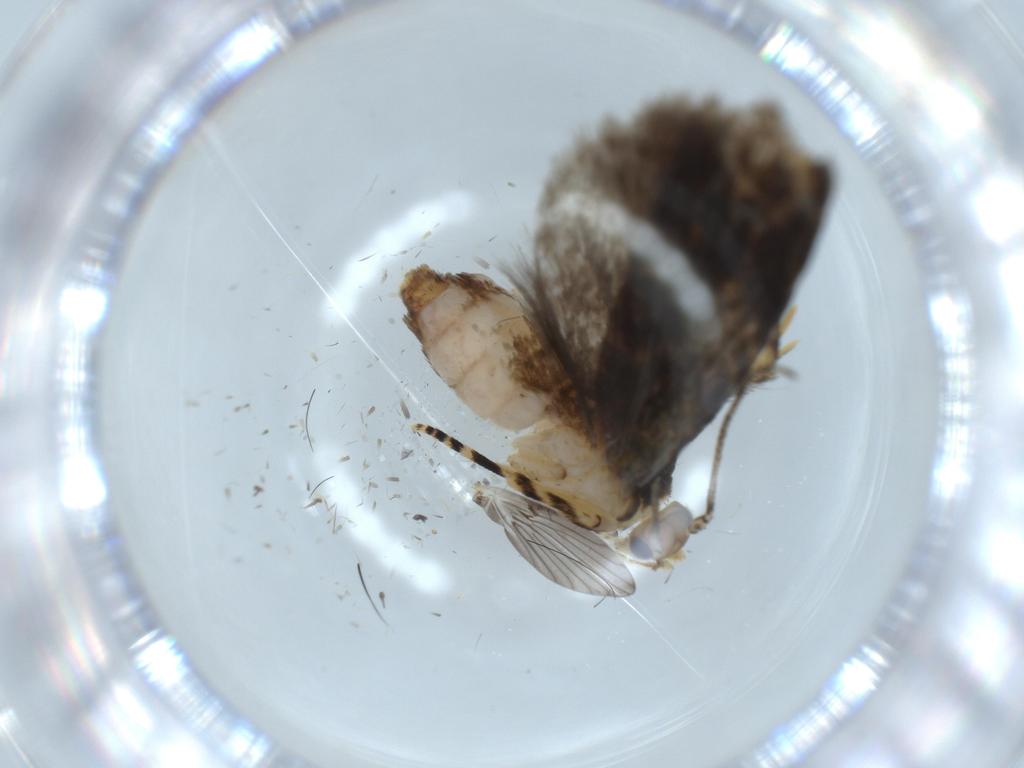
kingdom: Animalia
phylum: Arthropoda
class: Insecta
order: Lepidoptera
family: Tineidae
